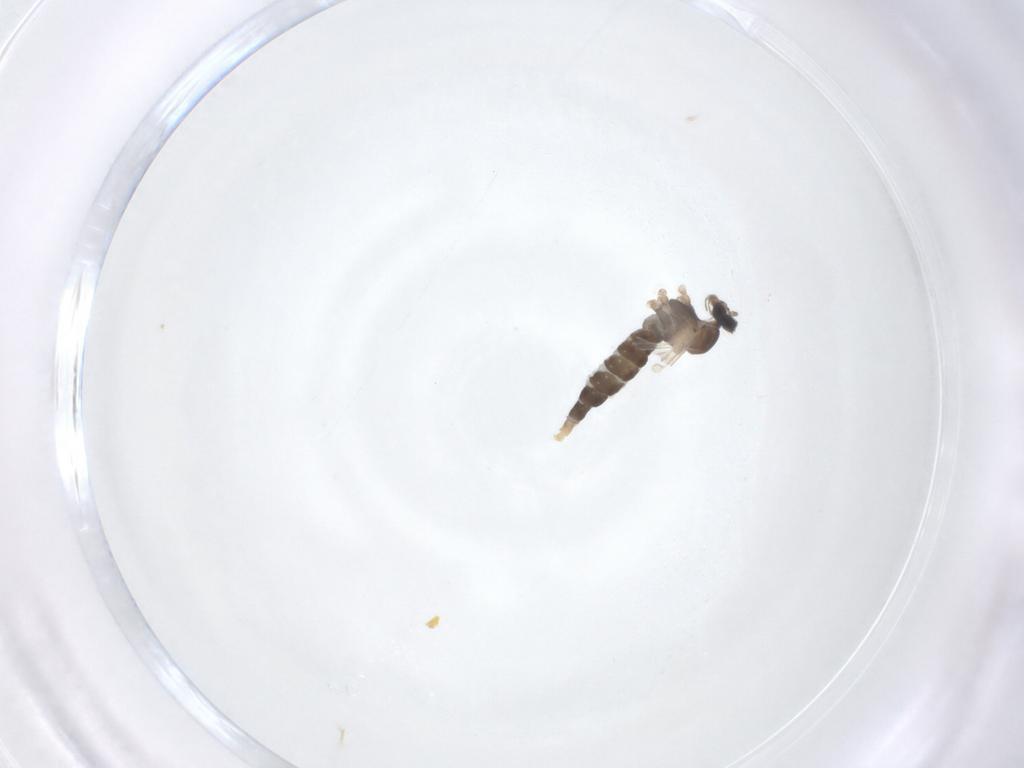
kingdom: Animalia
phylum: Arthropoda
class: Insecta
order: Diptera
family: Cecidomyiidae
